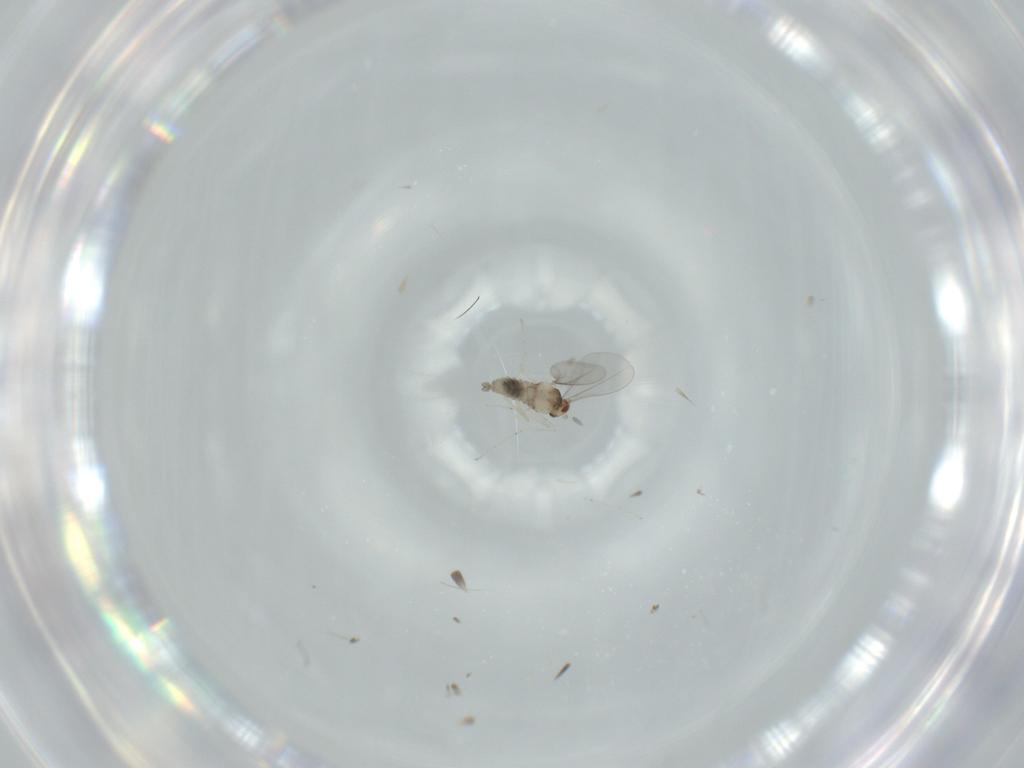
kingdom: Animalia
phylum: Arthropoda
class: Insecta
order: Diptera
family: Cecidomyiidae
